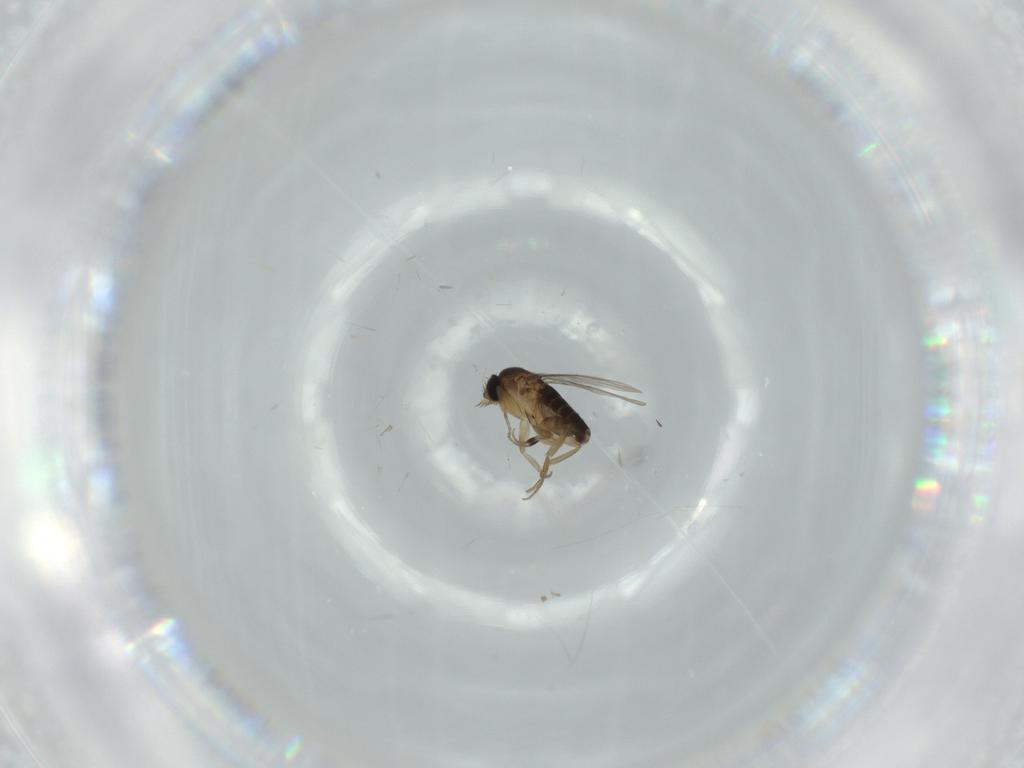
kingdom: Animalia
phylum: Arthropoda
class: Insecta
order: Diptera
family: Phoridae
